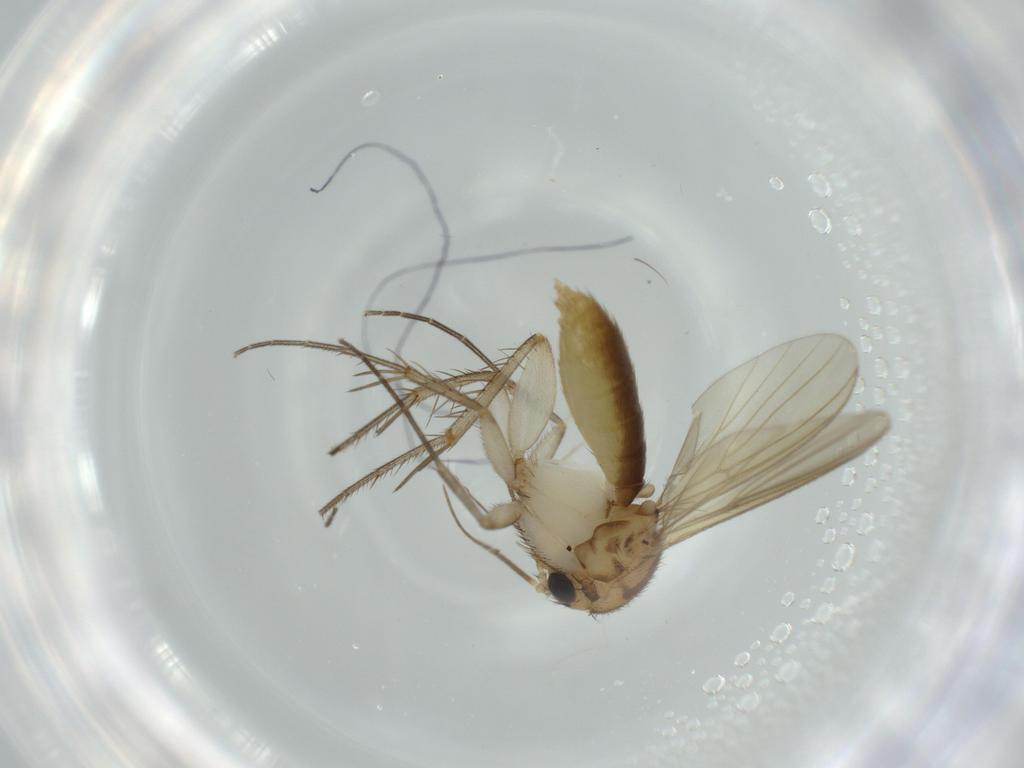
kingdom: Animalia
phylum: Arthropoda
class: Insecta
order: Diptera
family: Mycetophilidae
